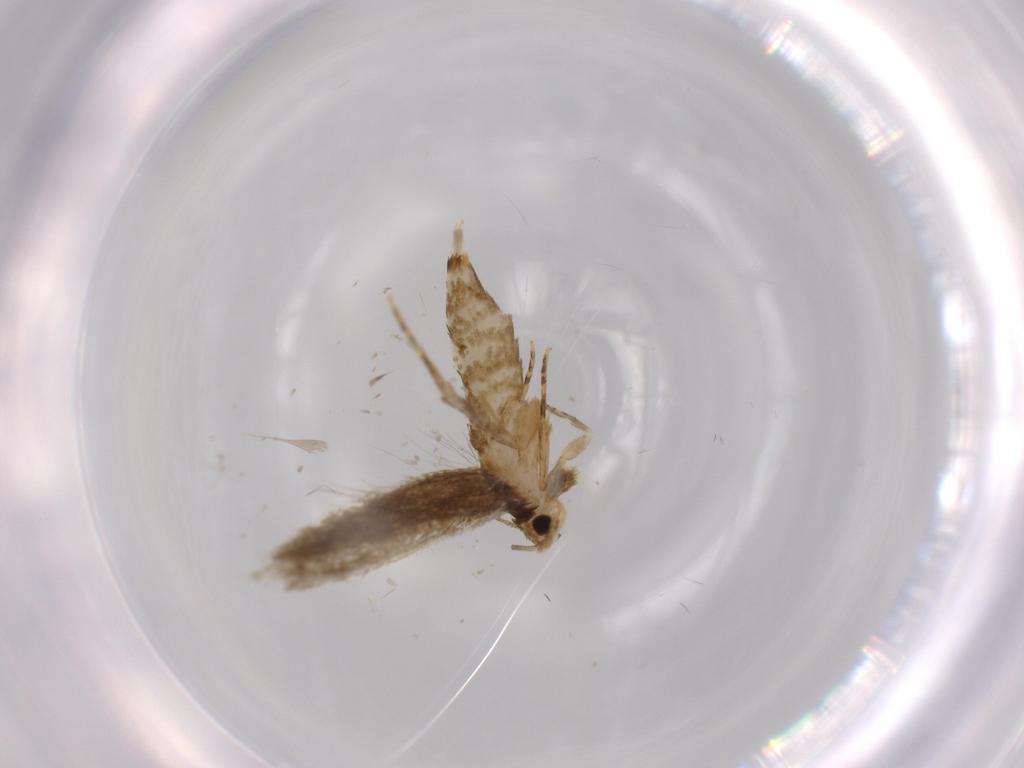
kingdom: Animalia
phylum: Arthropoda
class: Insecta
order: Lepidoptera
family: Tineidae
